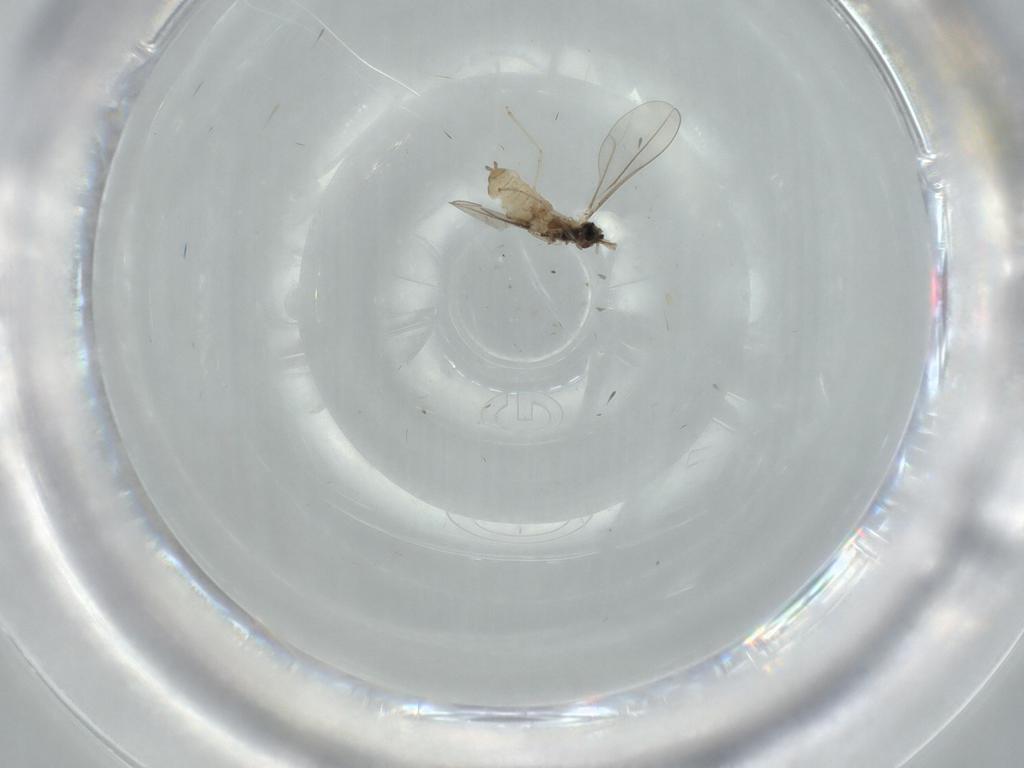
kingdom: Animalia
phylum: Arthropoda
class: Insecta
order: Diptera
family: Cecidomyiidae
